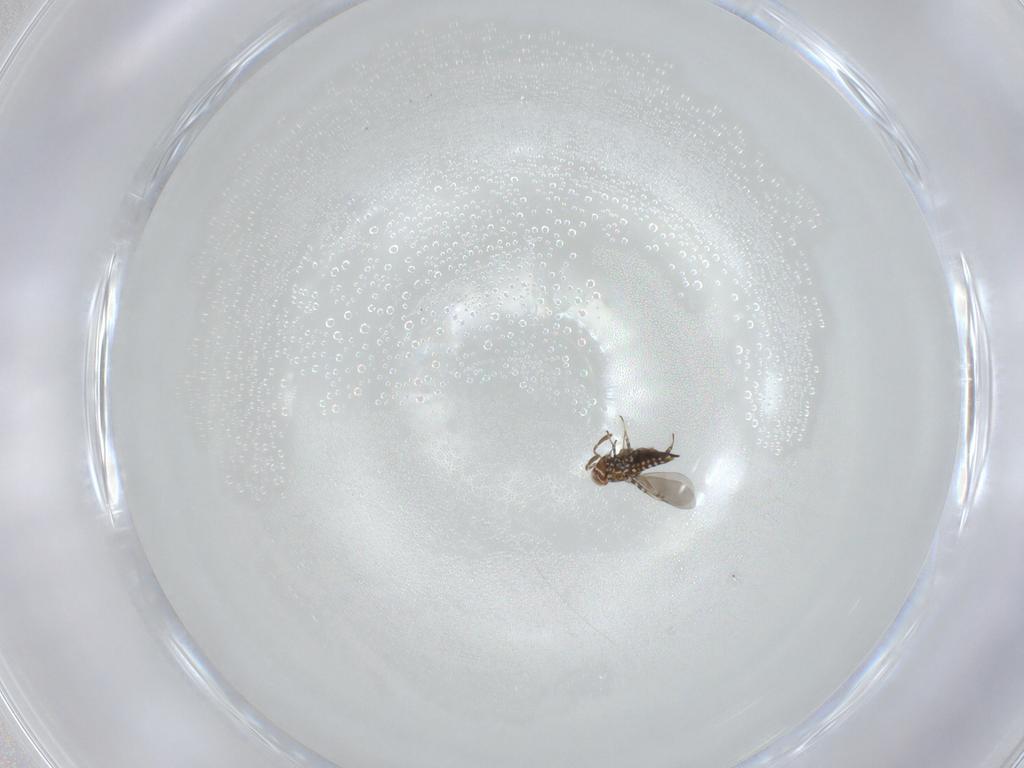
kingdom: Animalia
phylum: Arthropoda
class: Insecta
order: Hymenoptera
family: Aphelinidae
